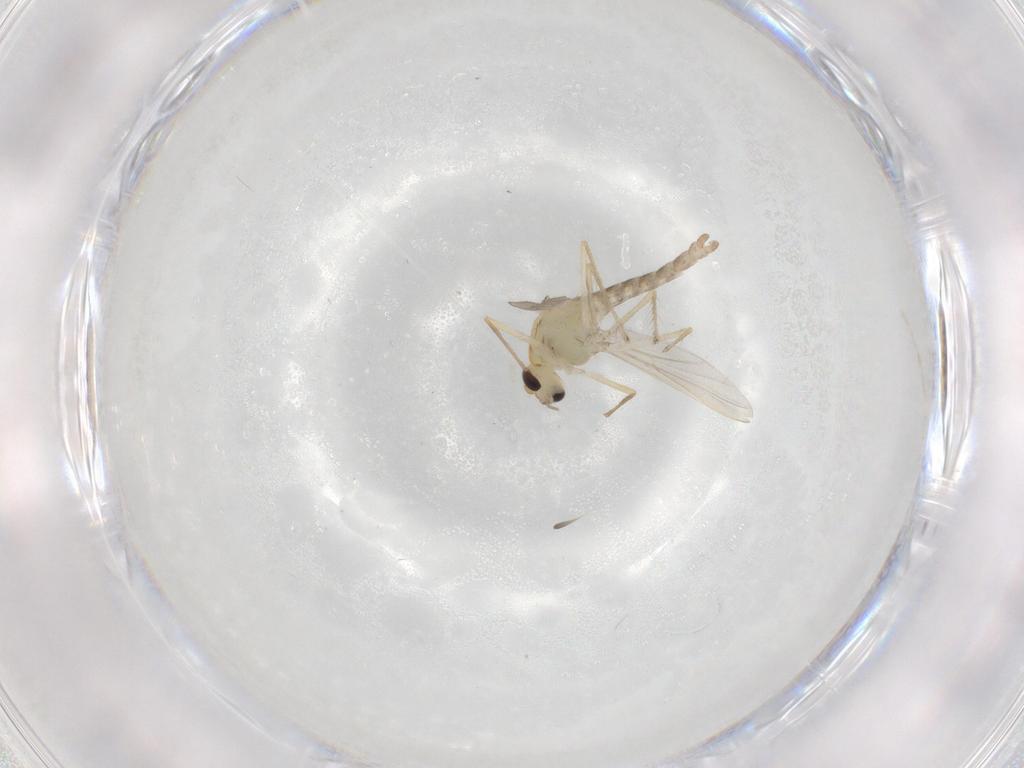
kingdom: Animalia
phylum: Arthropoda
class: Insecta
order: Diptera
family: Chironomidae
